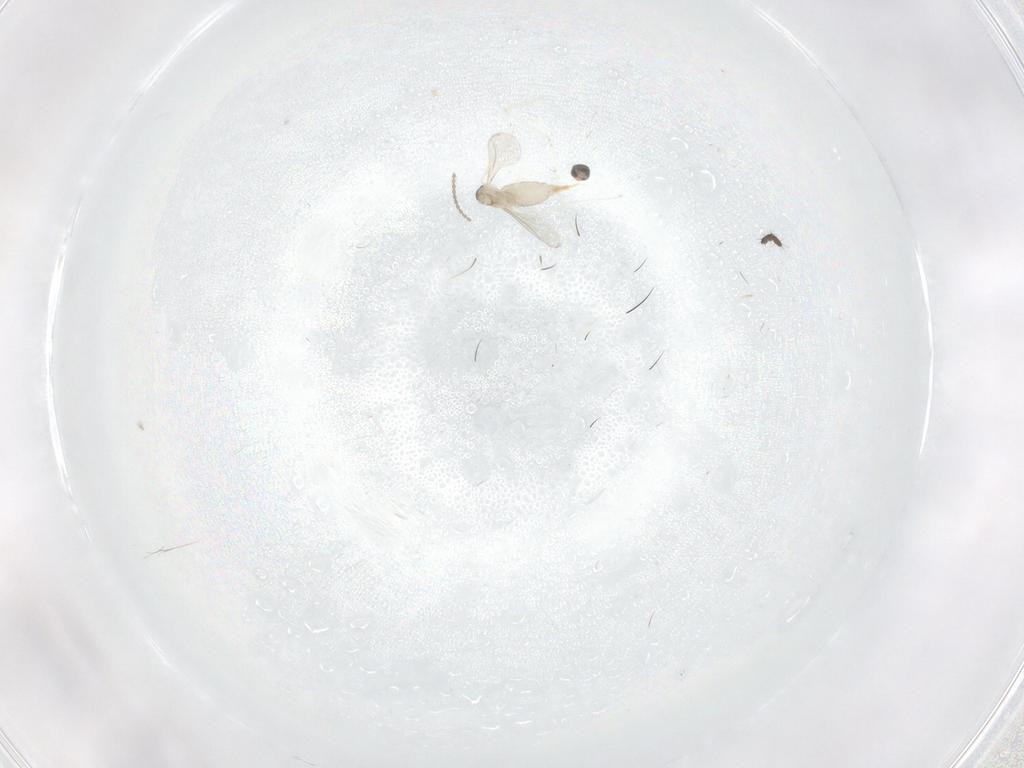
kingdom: Animalia
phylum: Arthropoda
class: Insecta
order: Diptera
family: Cecidomyiidae
